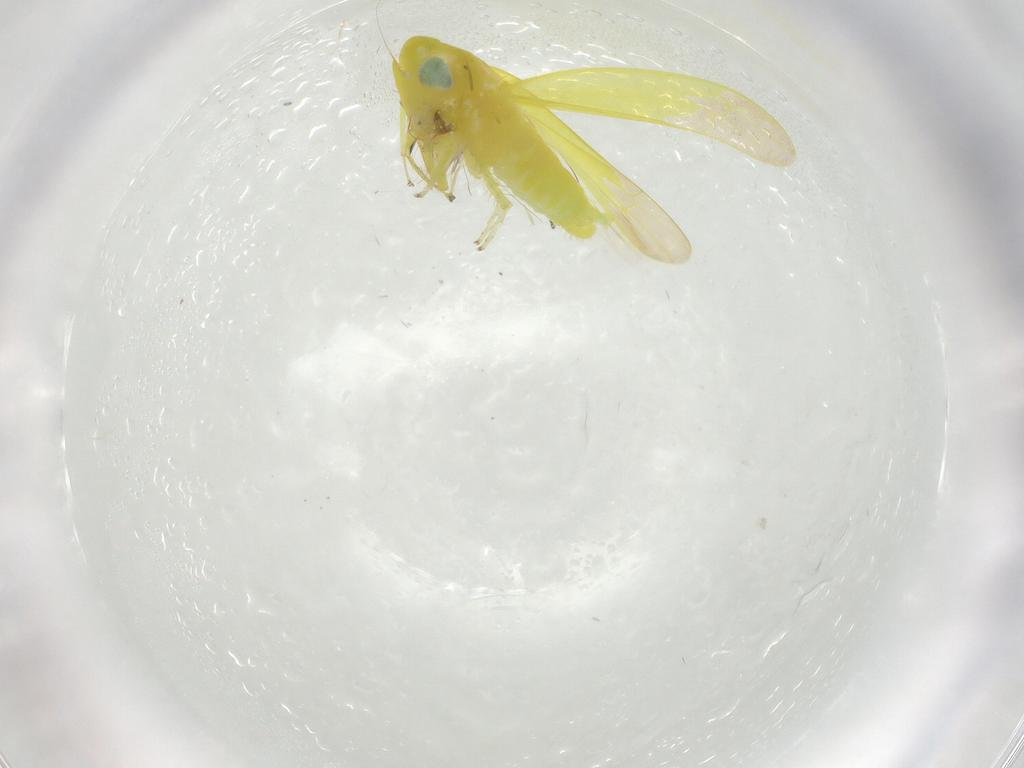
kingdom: Animalia
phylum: Arthropoda
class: Insecta
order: Hemiptera
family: Cicadellidae
